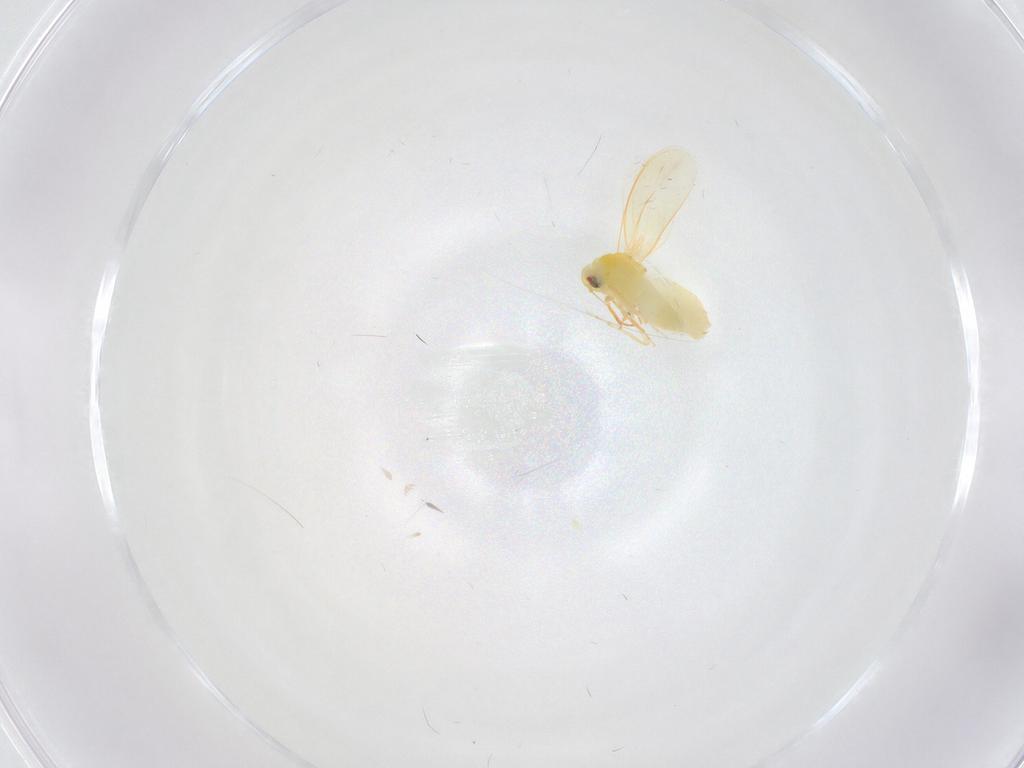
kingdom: Animalia
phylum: Arthropoda
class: Insecta
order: Hemiptera
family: Aleyrodidae
